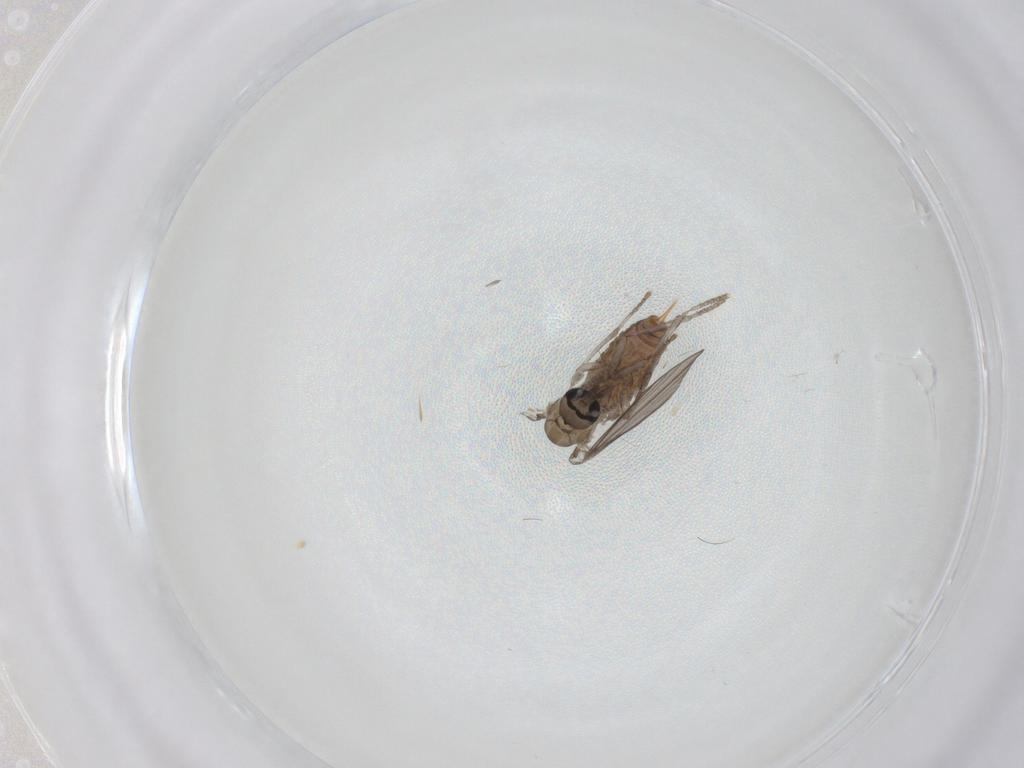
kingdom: Animalia
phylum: Arthropoda
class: Insecta
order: Diptera
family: Psychodidae
